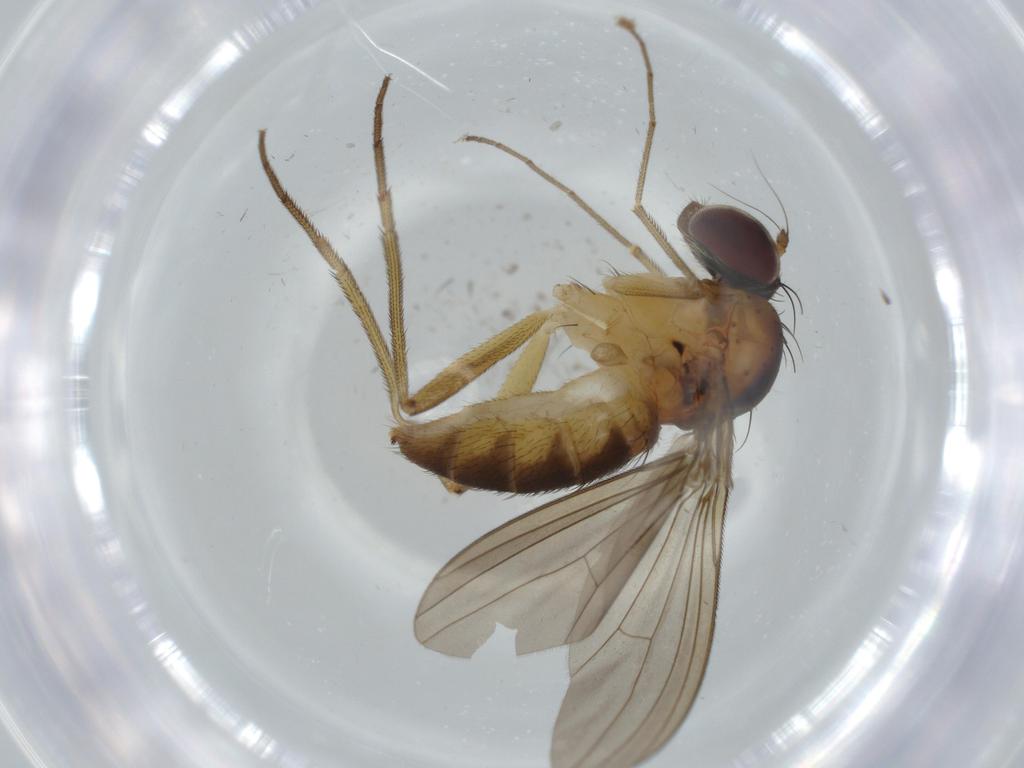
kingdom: Animalia
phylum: Arthropoda
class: Insecta
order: Diptera
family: Dolichopodidae
